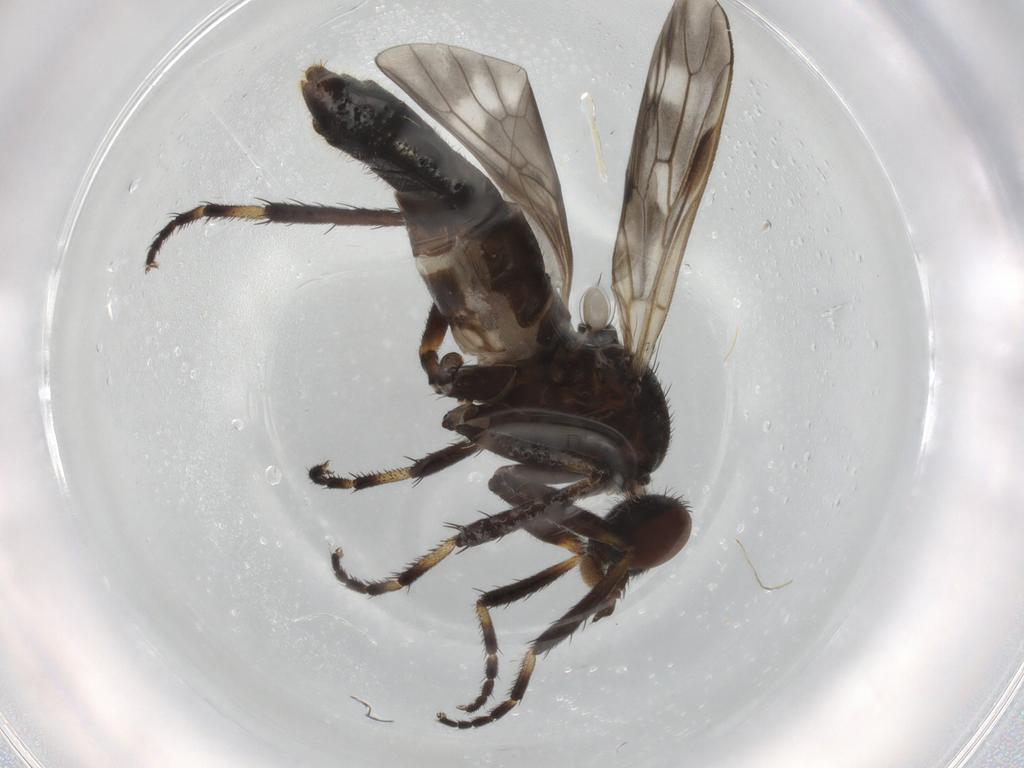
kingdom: Animalia
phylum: Arthropoda
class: Insecta
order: Diptera
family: Therevidae
